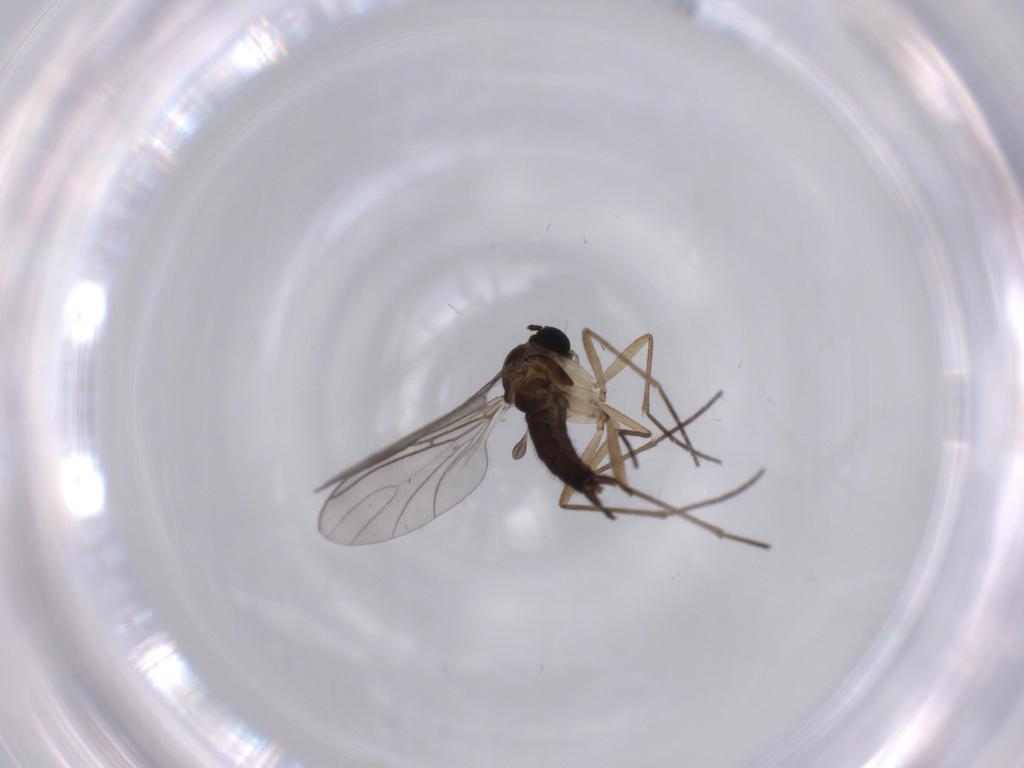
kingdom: Animalia
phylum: Arthropoda
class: Insecta
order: Diptera
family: Sciaridae
